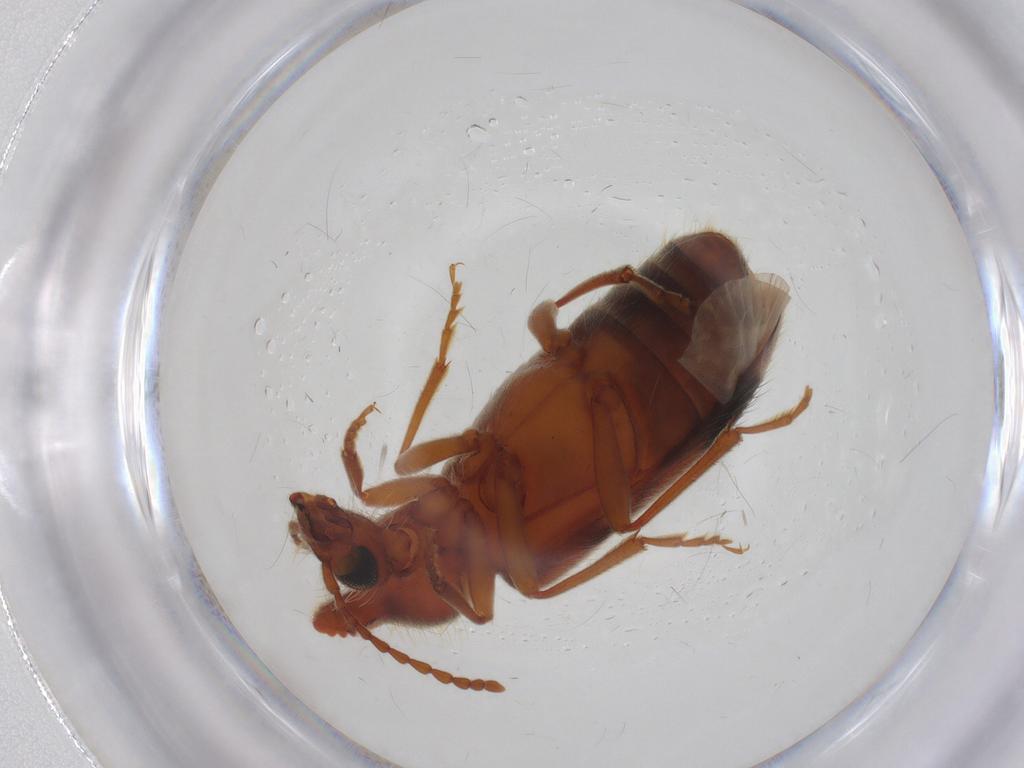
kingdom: Animalia
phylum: Arthropoda
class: Insecta
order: Coleoptera
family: Anthicidae
